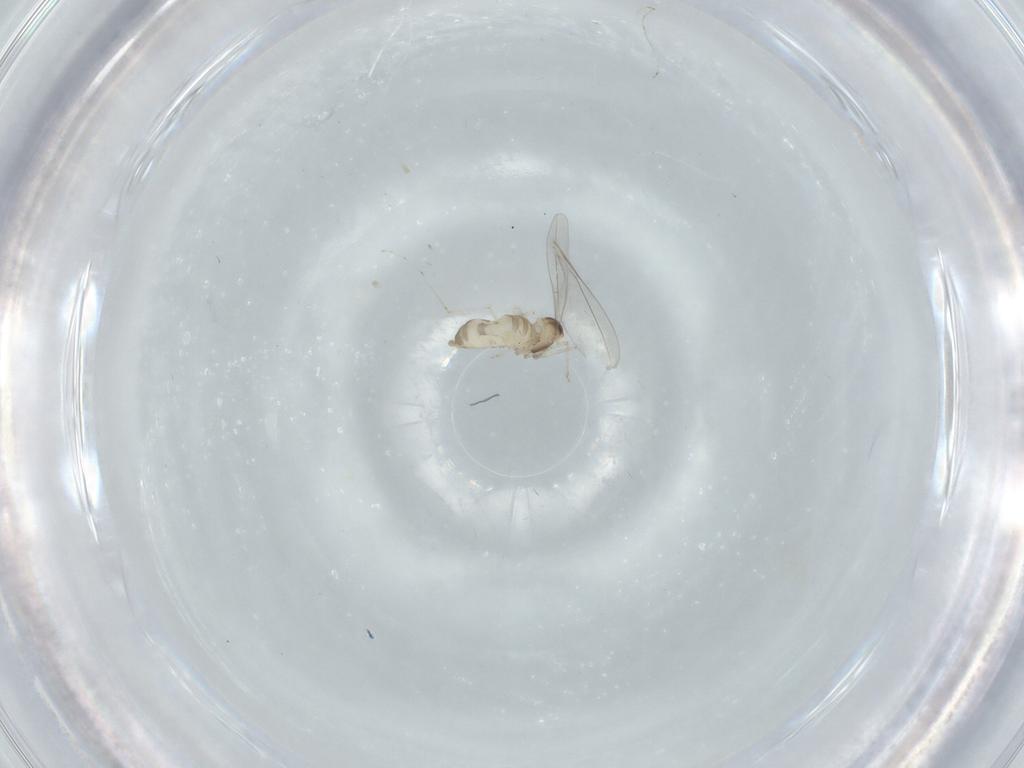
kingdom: Animalia
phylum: Arthropoda
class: Insecta
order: Diptera
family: Cecidomyiidae
